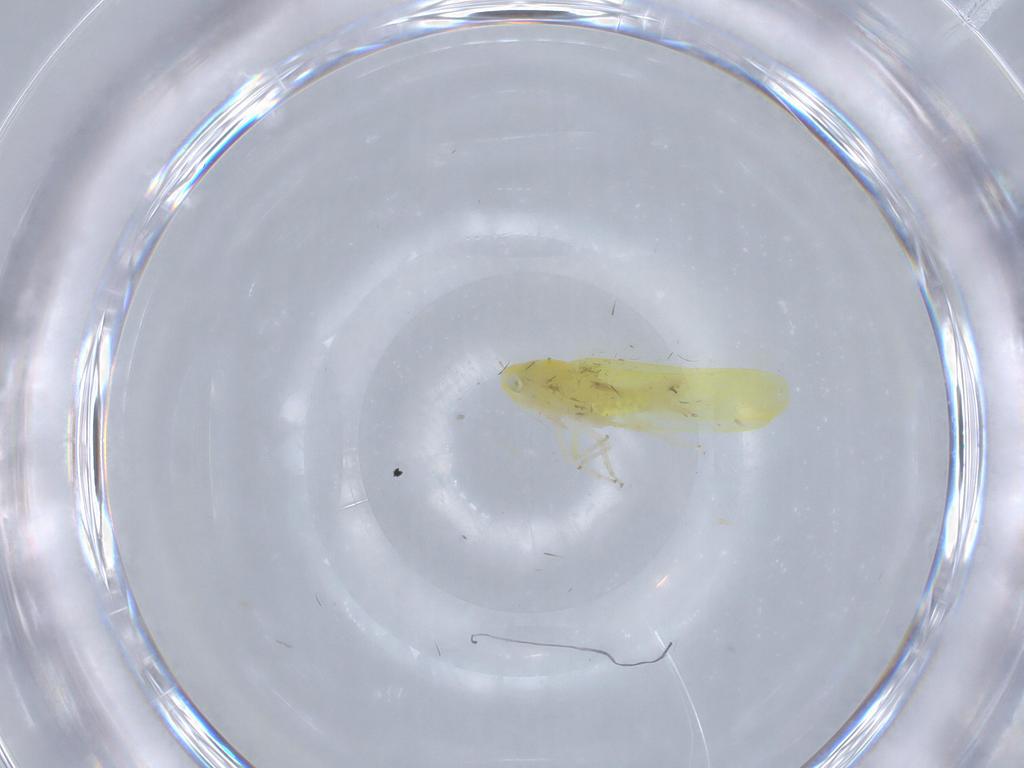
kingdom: Animalia
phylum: Arthropoda
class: Insecta
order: Hemiptera
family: Cicadellidae
